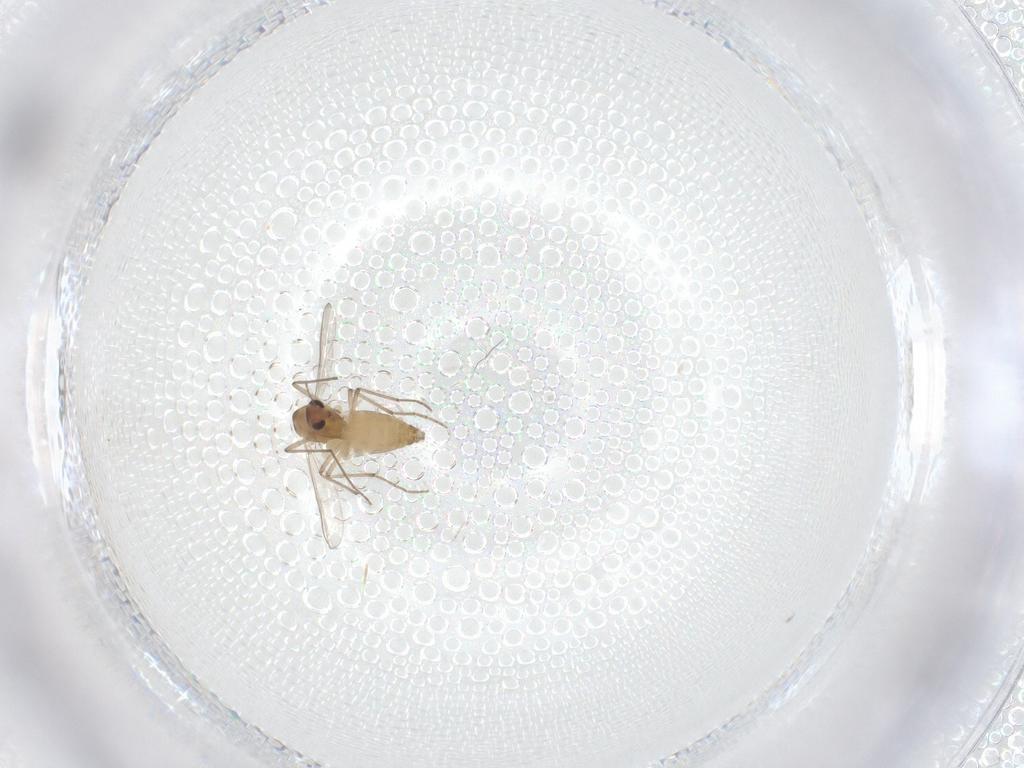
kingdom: Animalia
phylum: Arthropoda
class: Insecta
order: Diptera
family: Chironomidae
